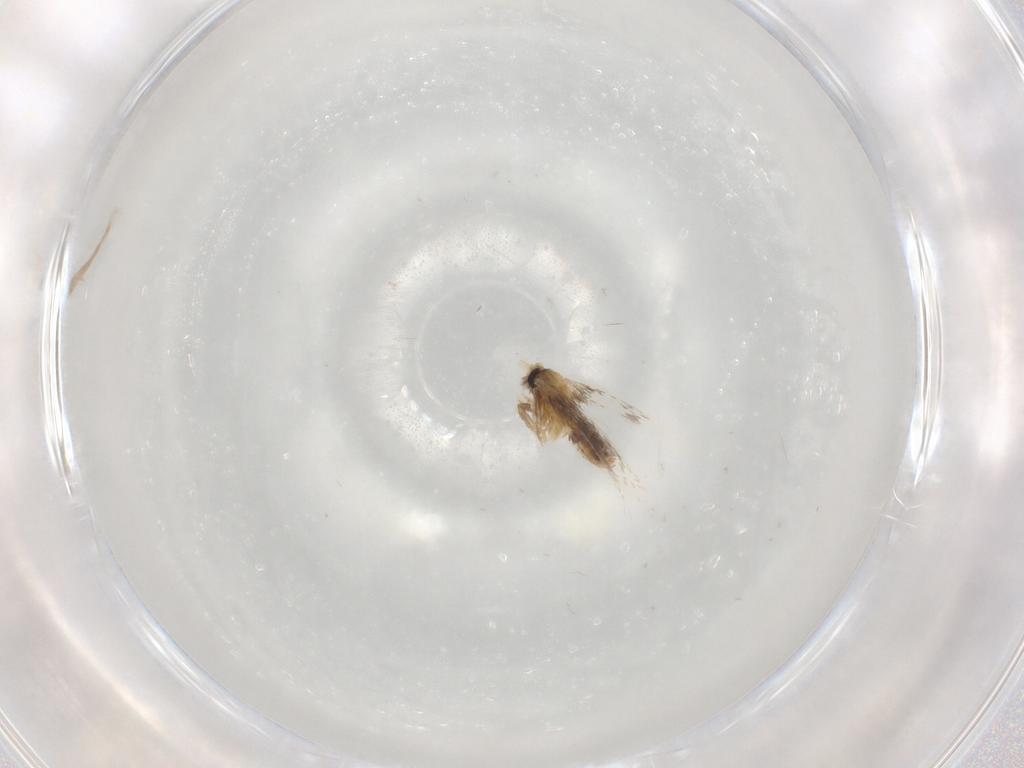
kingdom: Animalia
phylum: Arthropoda
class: Insecta
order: Lepidoptera
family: Nepticulidae
